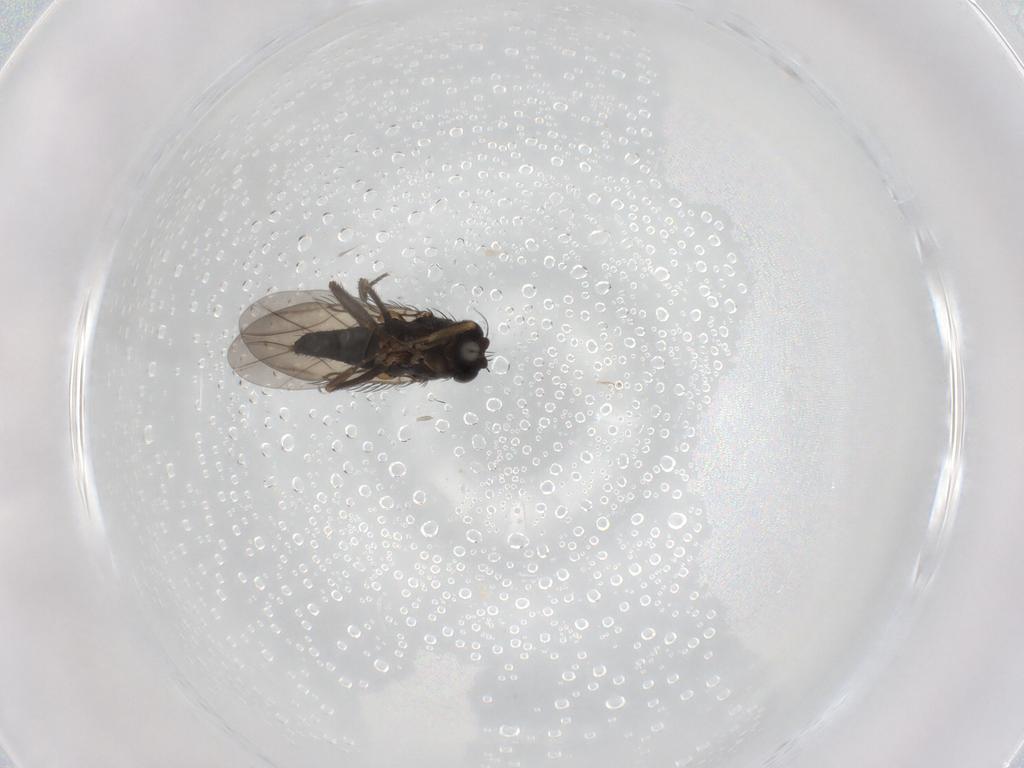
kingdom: Animalia
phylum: Arthropoda
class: Insecta
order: Diptera
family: Phoridae
